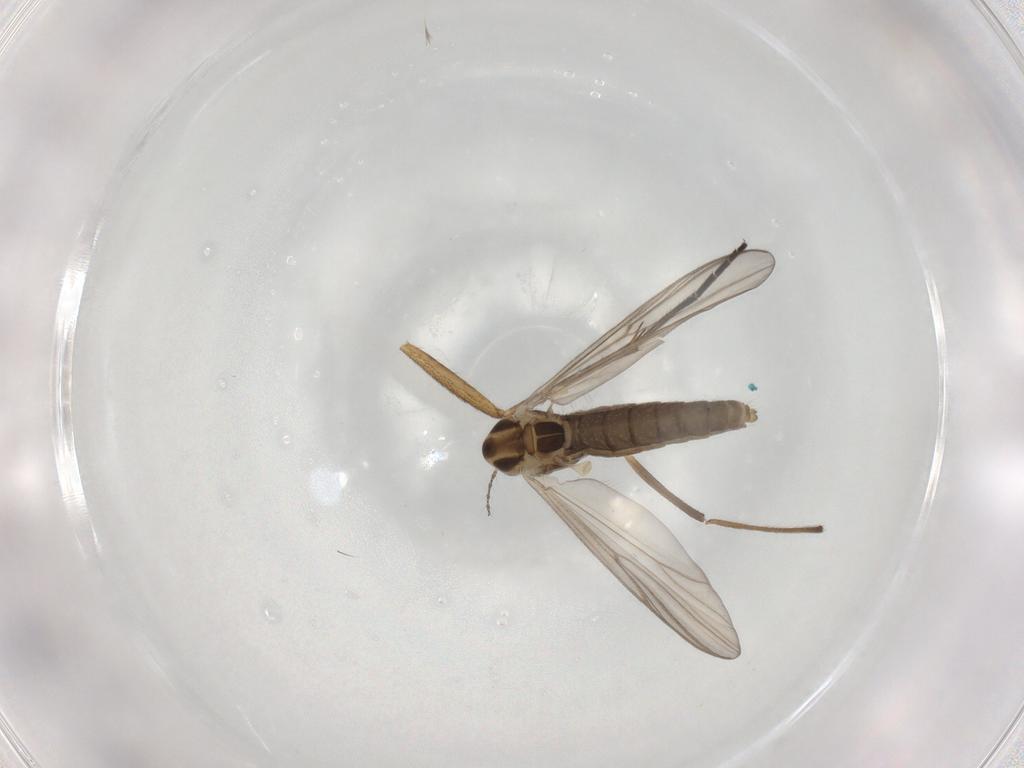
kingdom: Animalia
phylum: Arthropoda
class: Insecta
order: Diptera
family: Chironomidae
